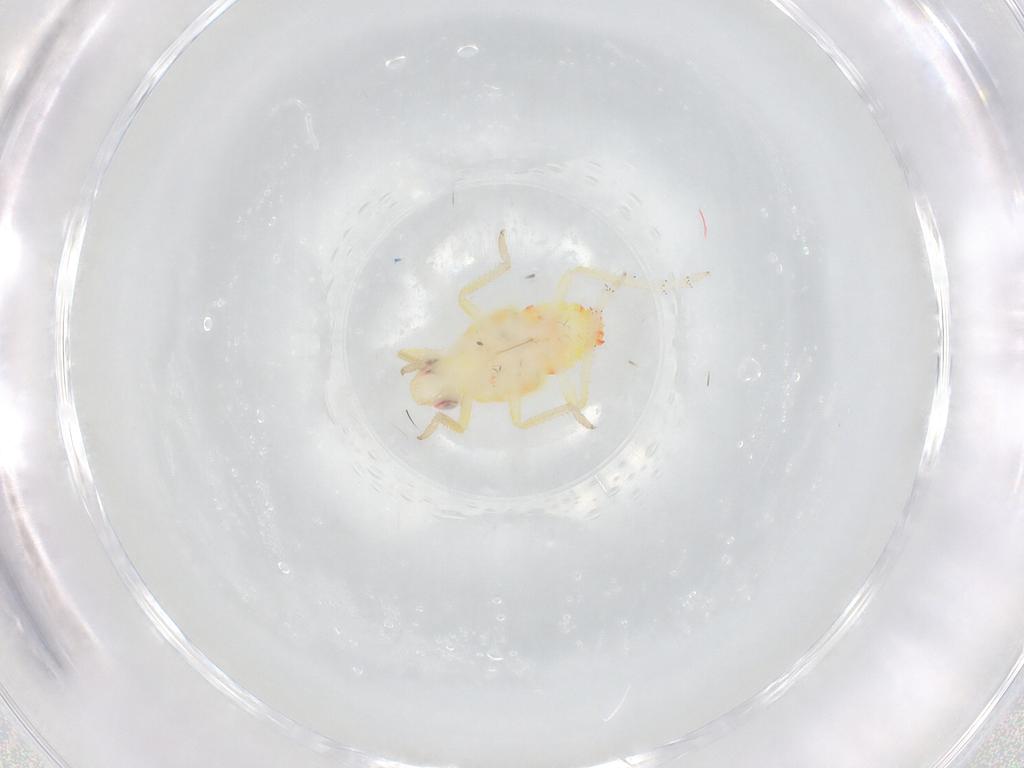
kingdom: Animalia
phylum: Arthropoda
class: Insecta
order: Hemiptera
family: Tropiduchidae
